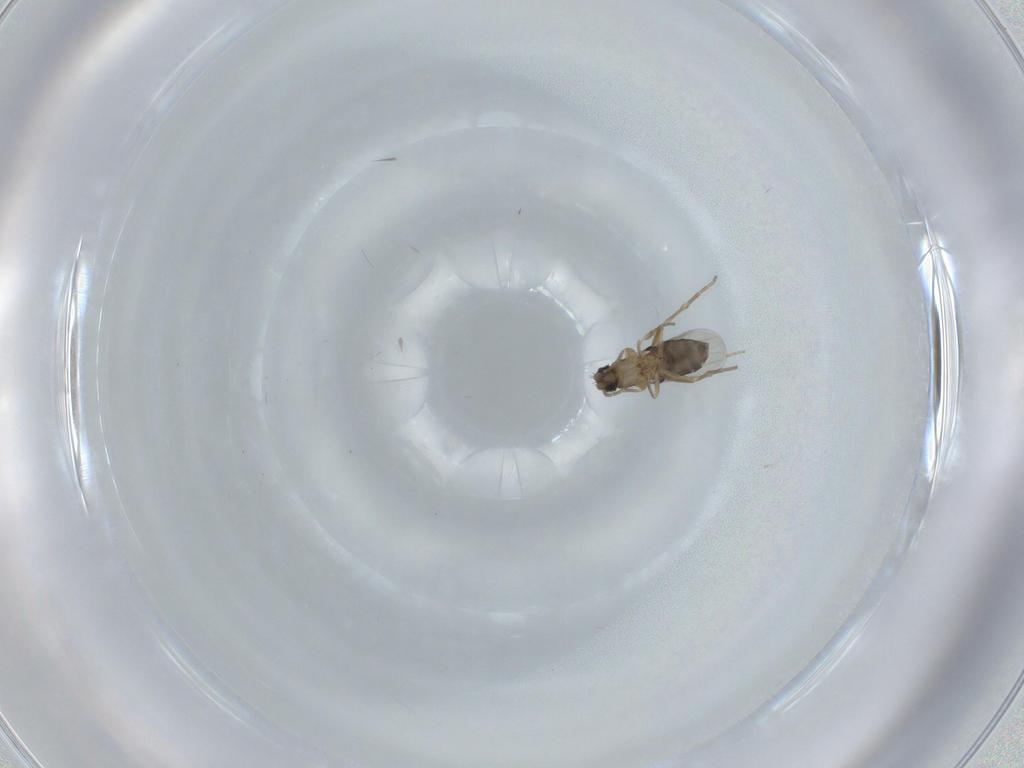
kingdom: Animalia
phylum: Arthropoda
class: Insecta
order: Diptera
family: Phoridae
